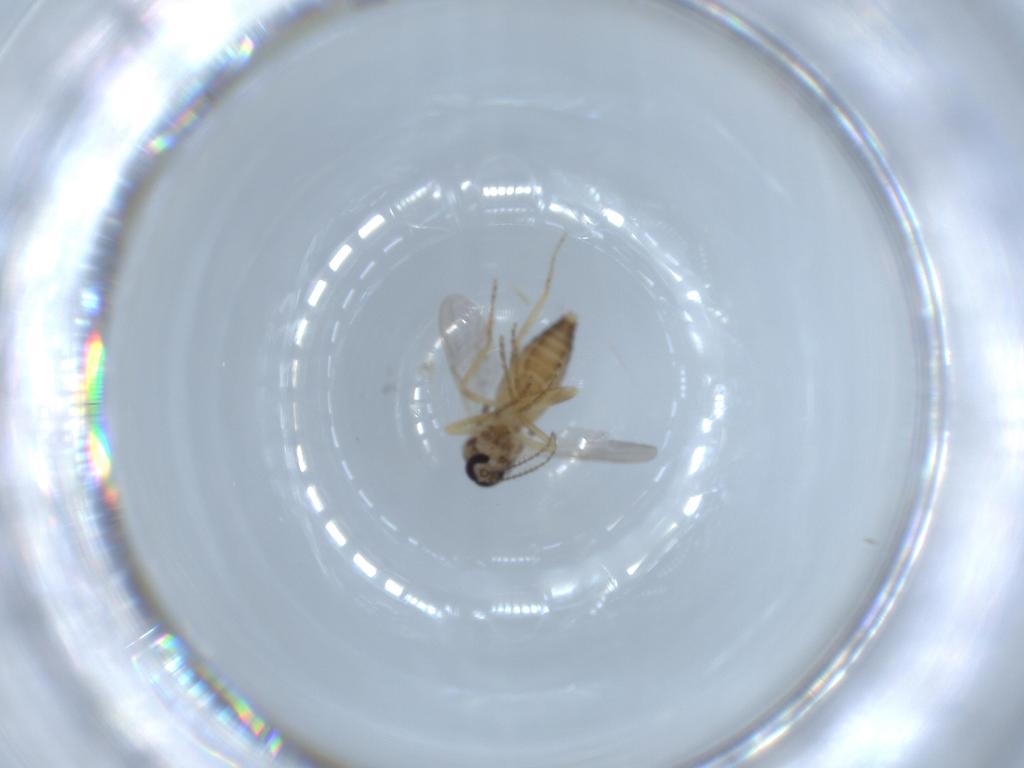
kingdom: Animalia
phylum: Arthropoda
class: Insecta
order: Diptera
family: Ceratopogonidae
